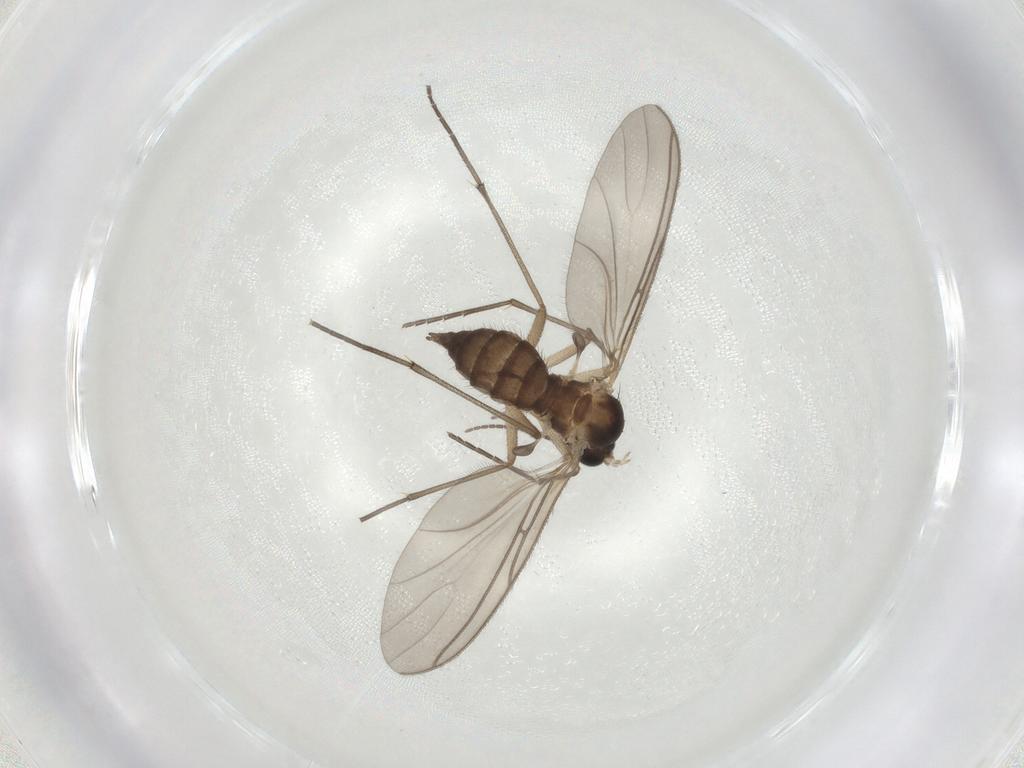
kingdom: Animalia
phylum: Arthropoda
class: Insecta
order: Diptera
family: Sciaridae
